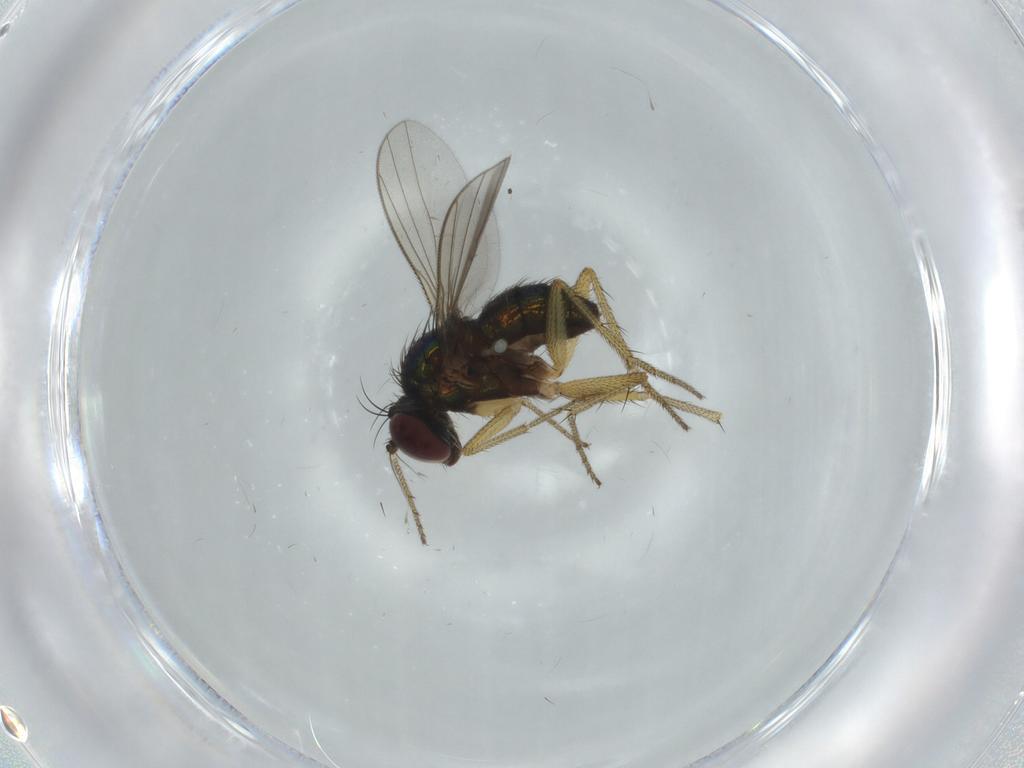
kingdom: Animalia
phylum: Arthropoda
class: Insecta
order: Diptera
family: Dolichopodidae
